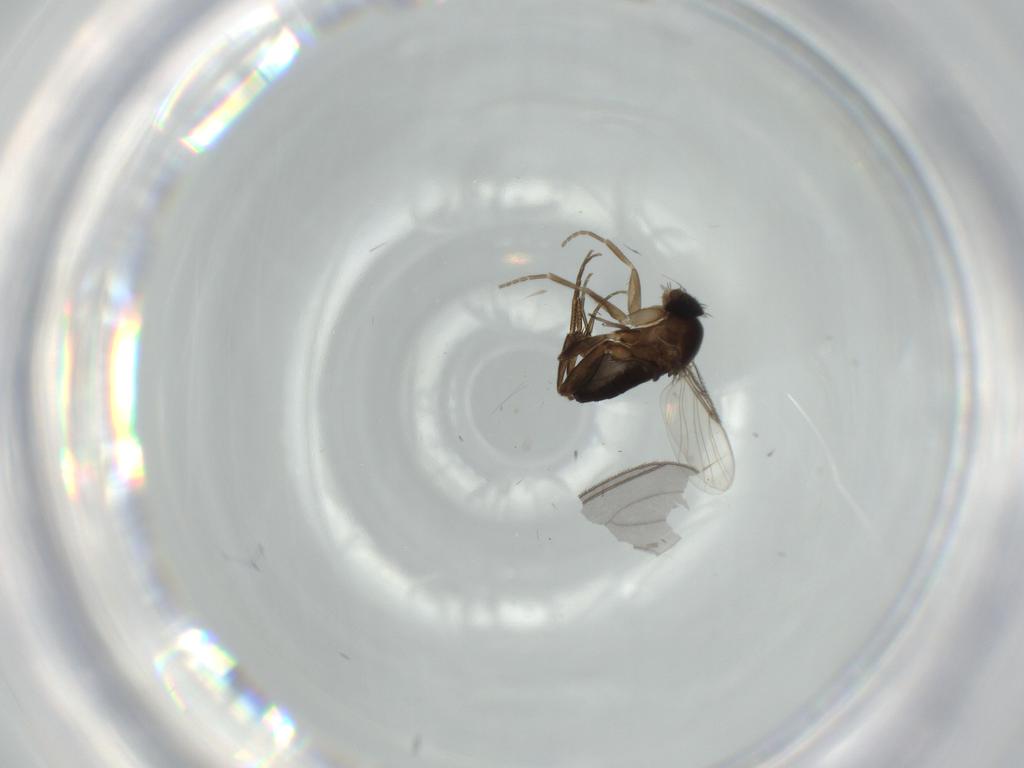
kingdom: Animalia
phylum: Arthropoda
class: Insecta
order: Diptera
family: Phoridae
